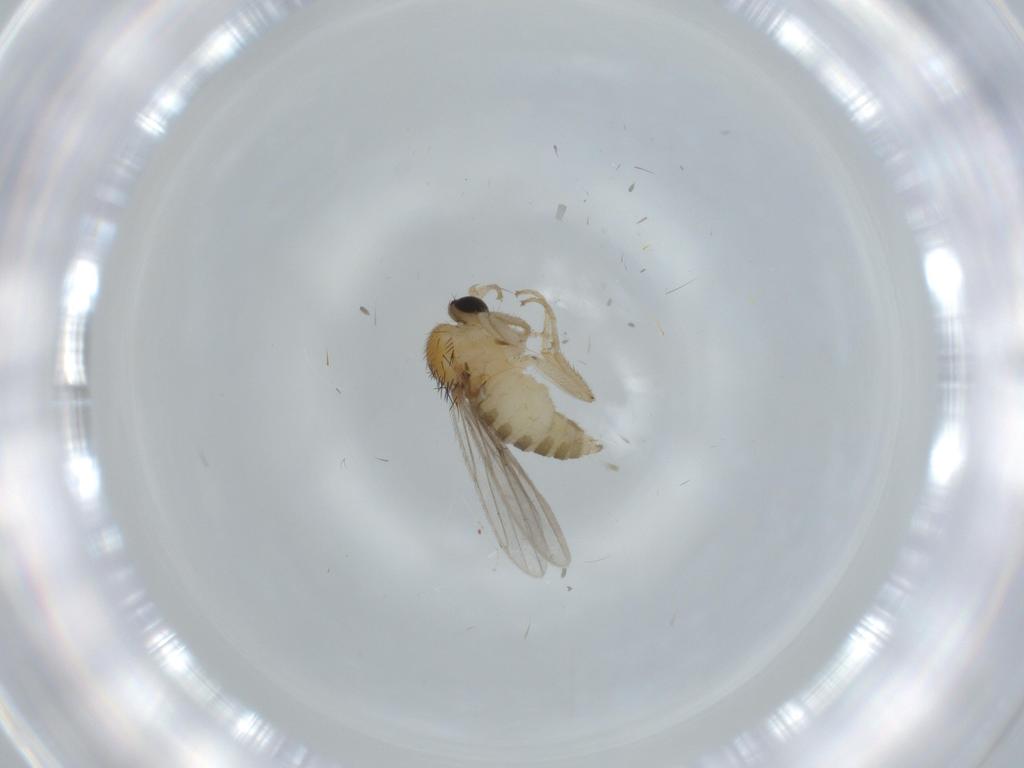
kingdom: Animalia
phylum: Arthropoda
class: Insecta
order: Diptera
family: Hybotidae
